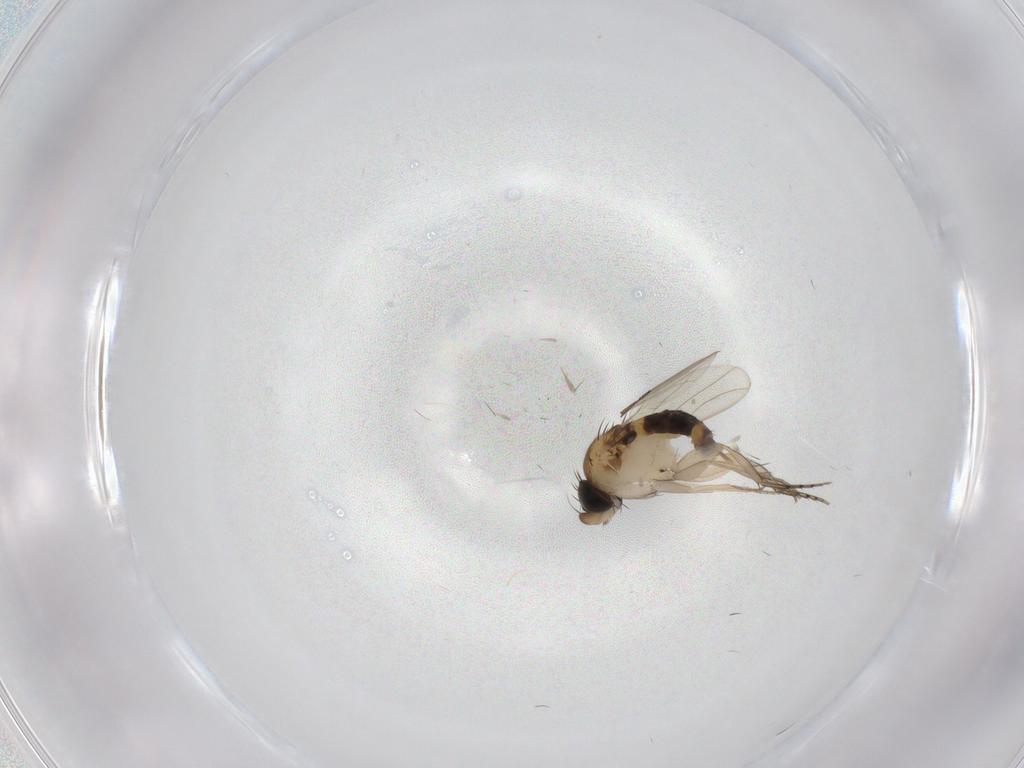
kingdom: Animalia
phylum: Arthropoda
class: Insecta
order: Diptera
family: Phoridae
